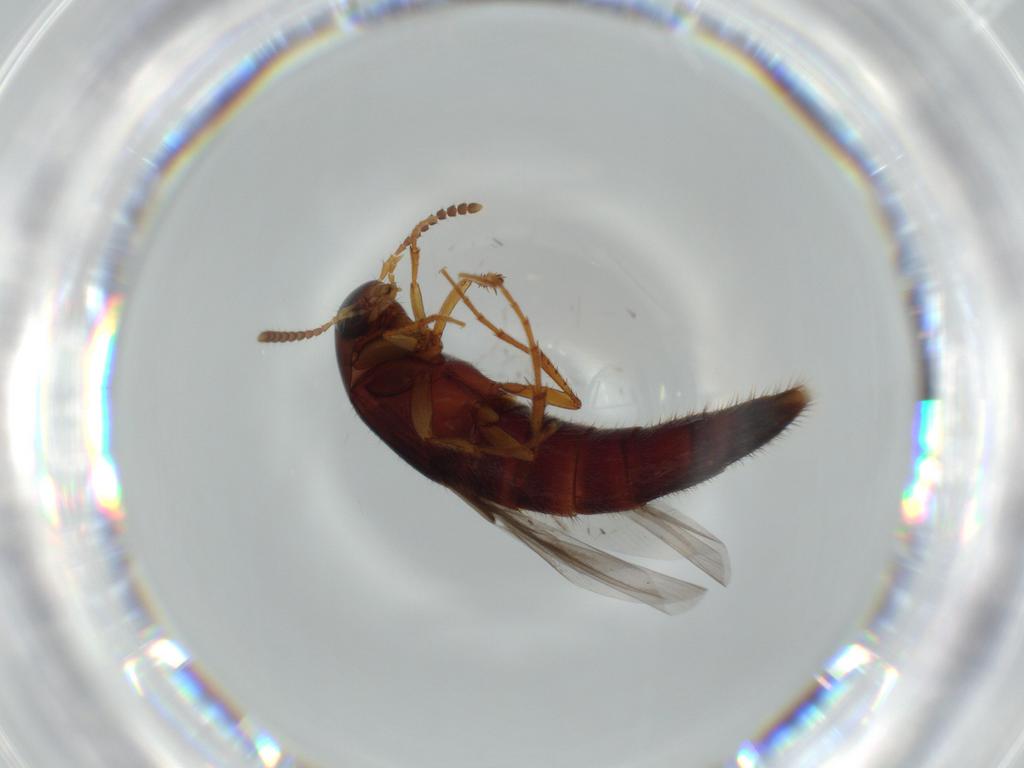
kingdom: Animalia
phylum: Arthropoda
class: Insecta
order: Coleoptera
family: Staphylinidae
